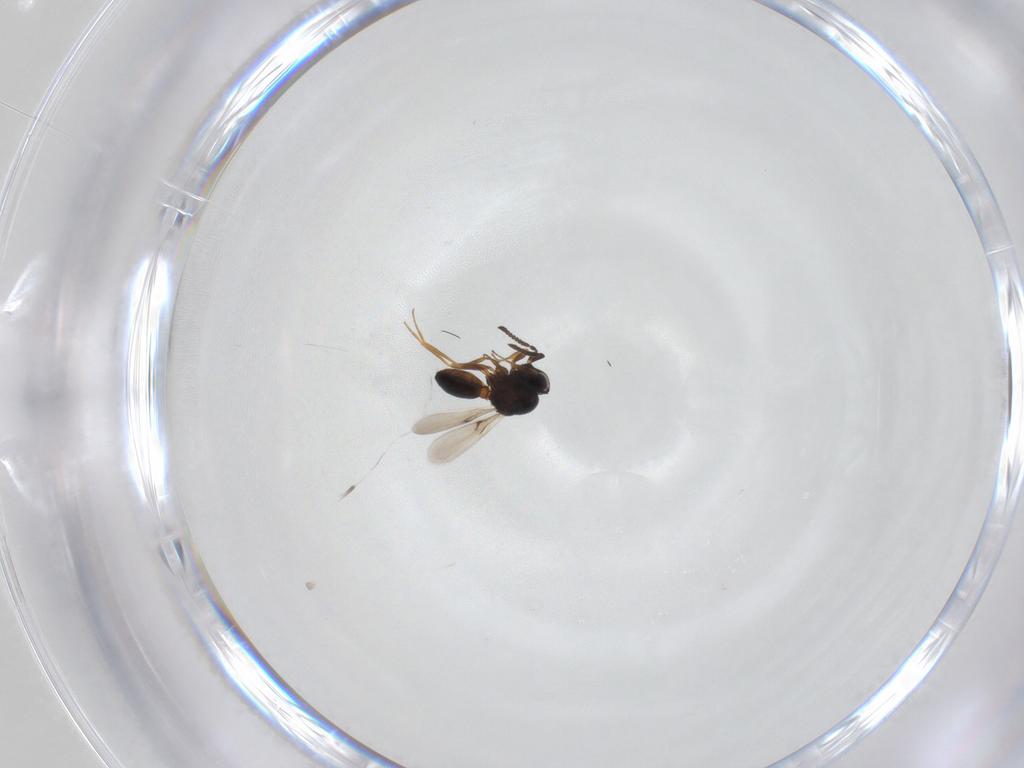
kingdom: Animalia
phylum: Arthropoda
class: Arachnida
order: Araneae
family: Pholcidae
